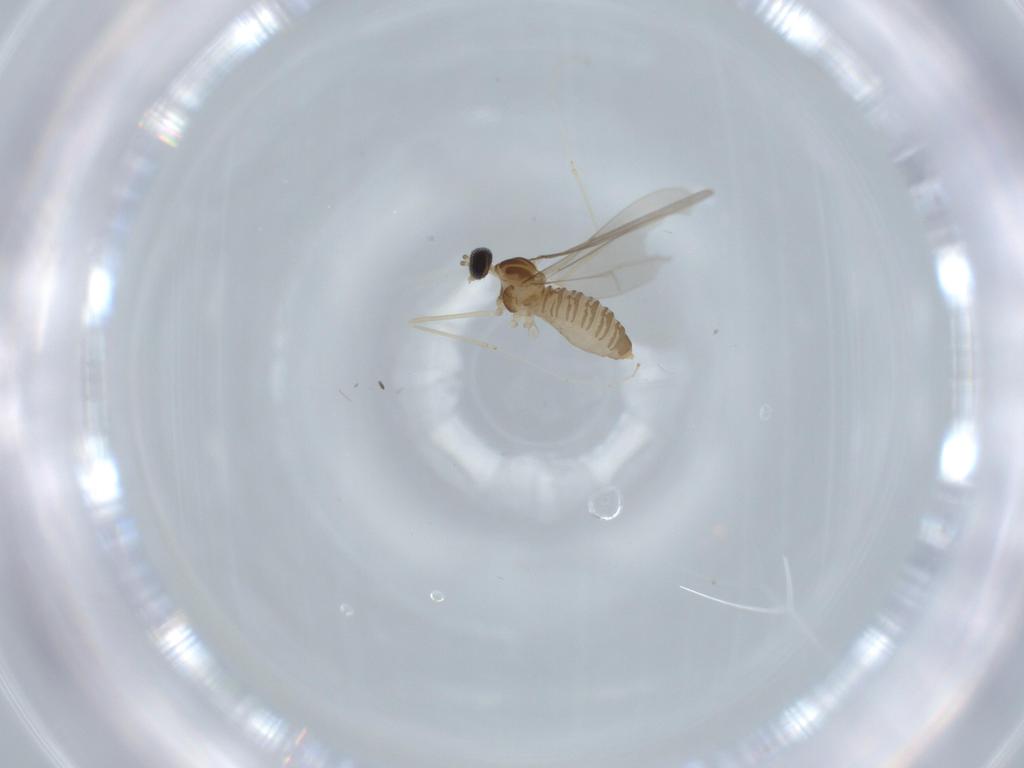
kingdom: Animalia
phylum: Arthropoda
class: Insecta
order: Diptera
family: Cecidomyiidae
